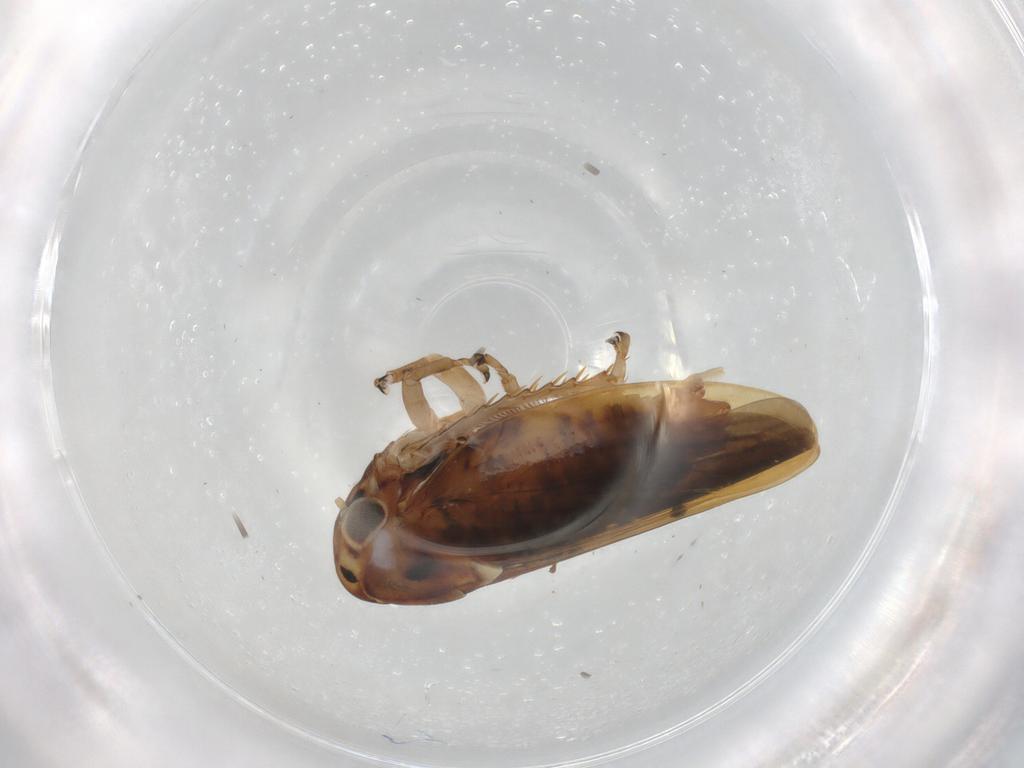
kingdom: Animalia
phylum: Arthropoda
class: Insecta
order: Hemiptera
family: Cicadellidae
